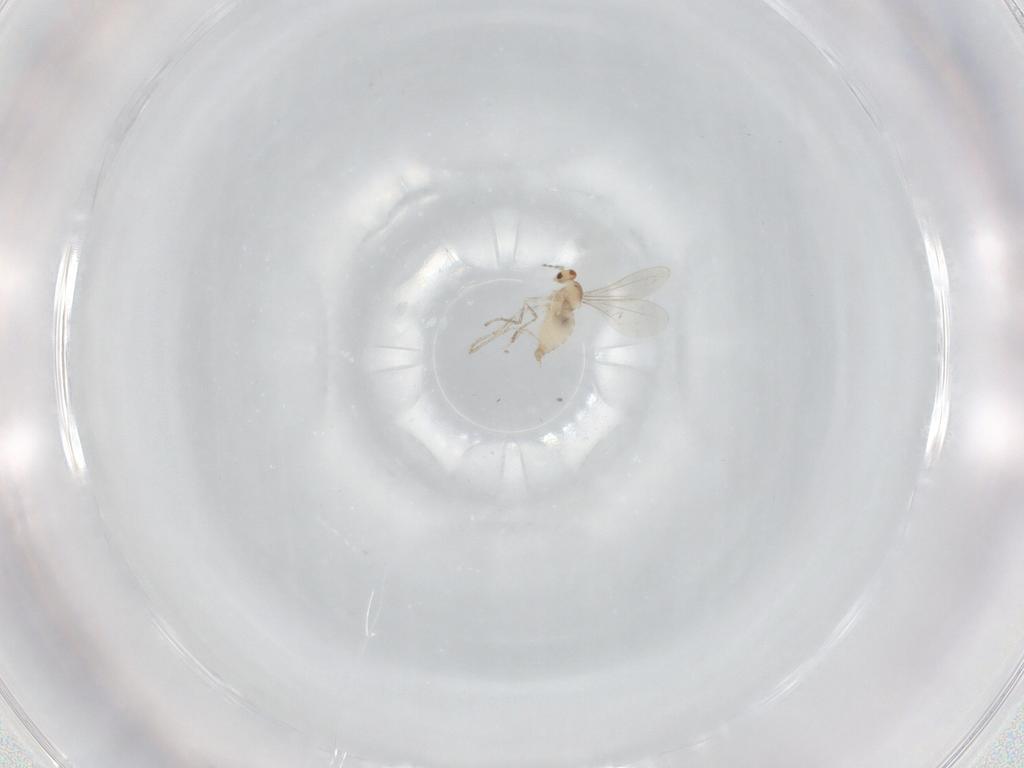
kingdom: Animalia
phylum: Arthropoda
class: Insecta
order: Diptera
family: Cecidomyiidae
